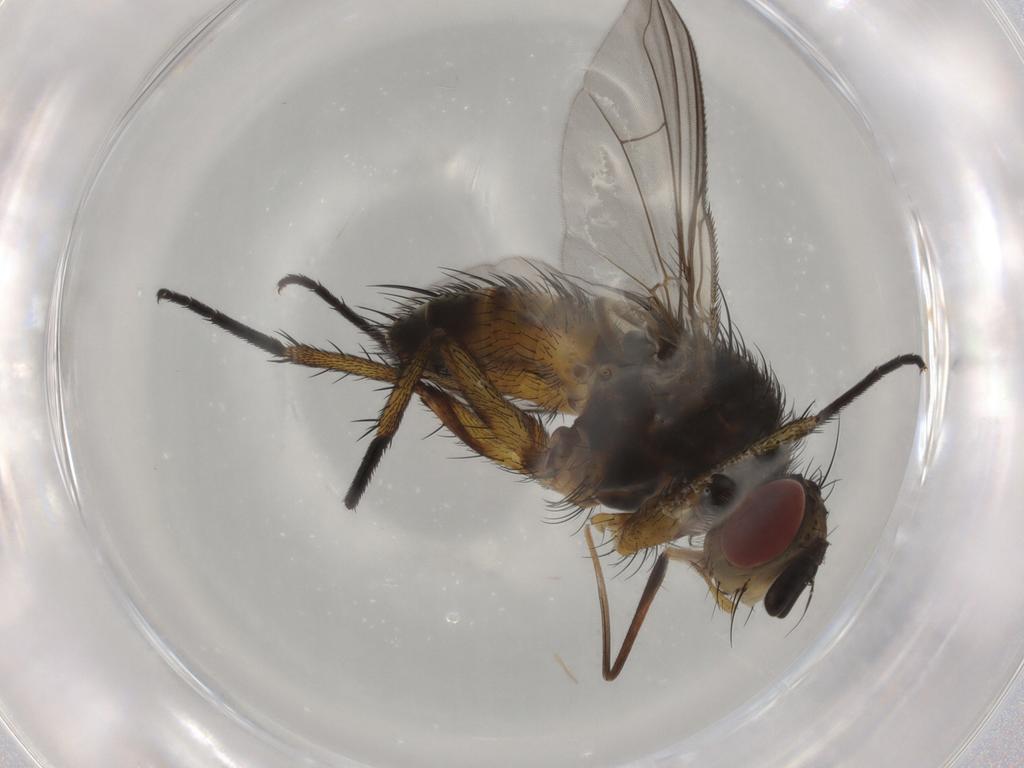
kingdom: Animalia
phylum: Arthropoda
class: Insecta
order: Diptera
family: Tachinidae
